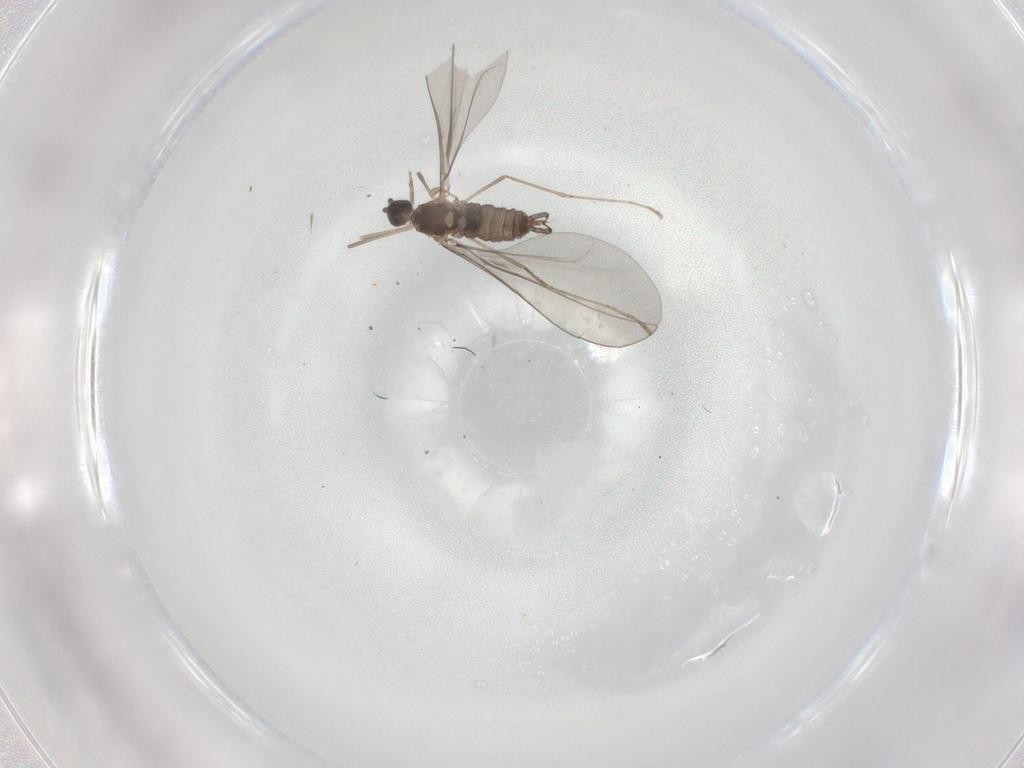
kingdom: Animalia
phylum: Arthropoda
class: Insecta
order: Diptera
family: Cecidomyiidae
